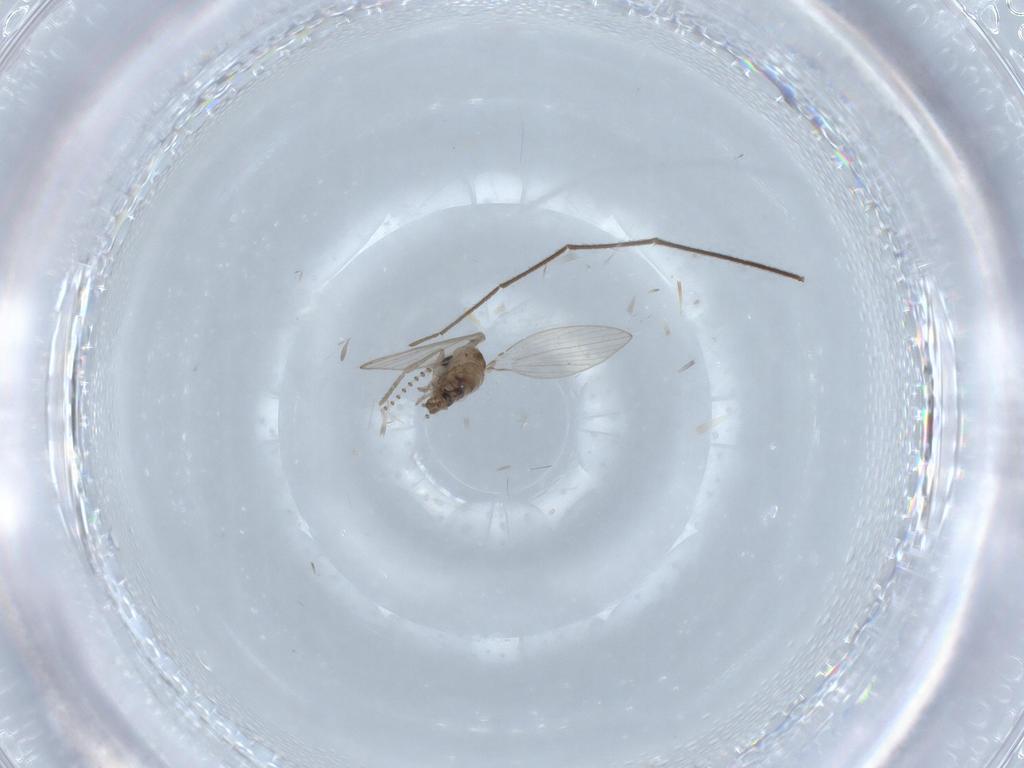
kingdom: Animalia
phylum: Arthropoda
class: Insecta
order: Diptera
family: Psychodidae
